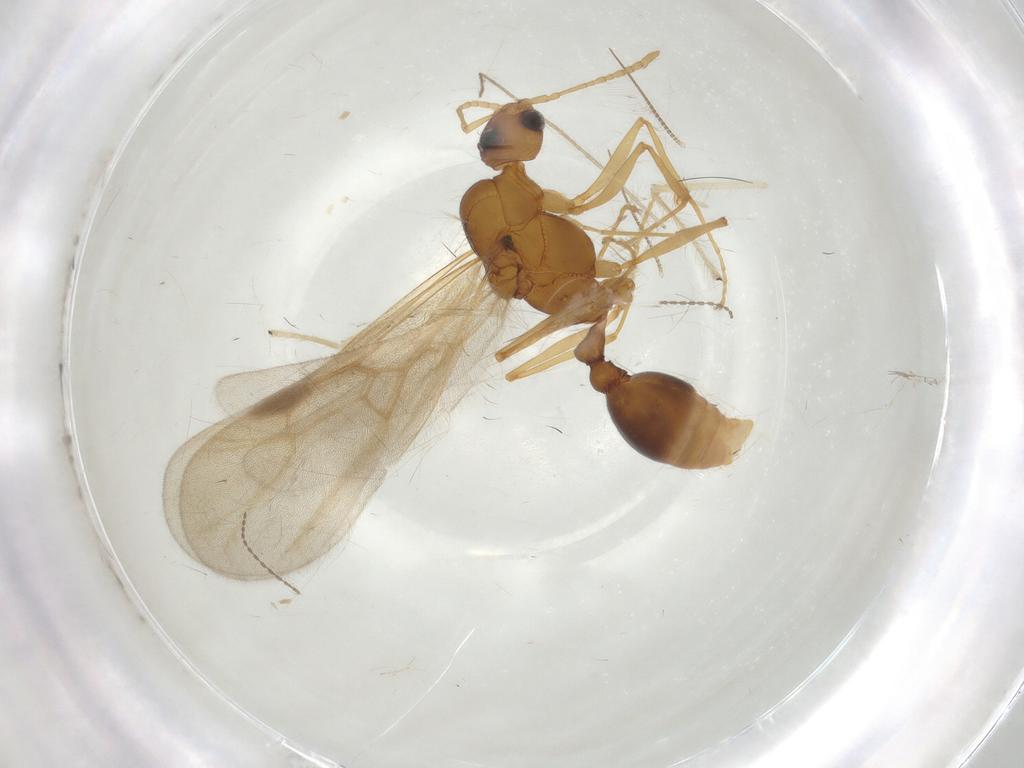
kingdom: Animalia
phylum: Arthropoda
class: Insecta
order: Hymenoptera
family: Formicidae
